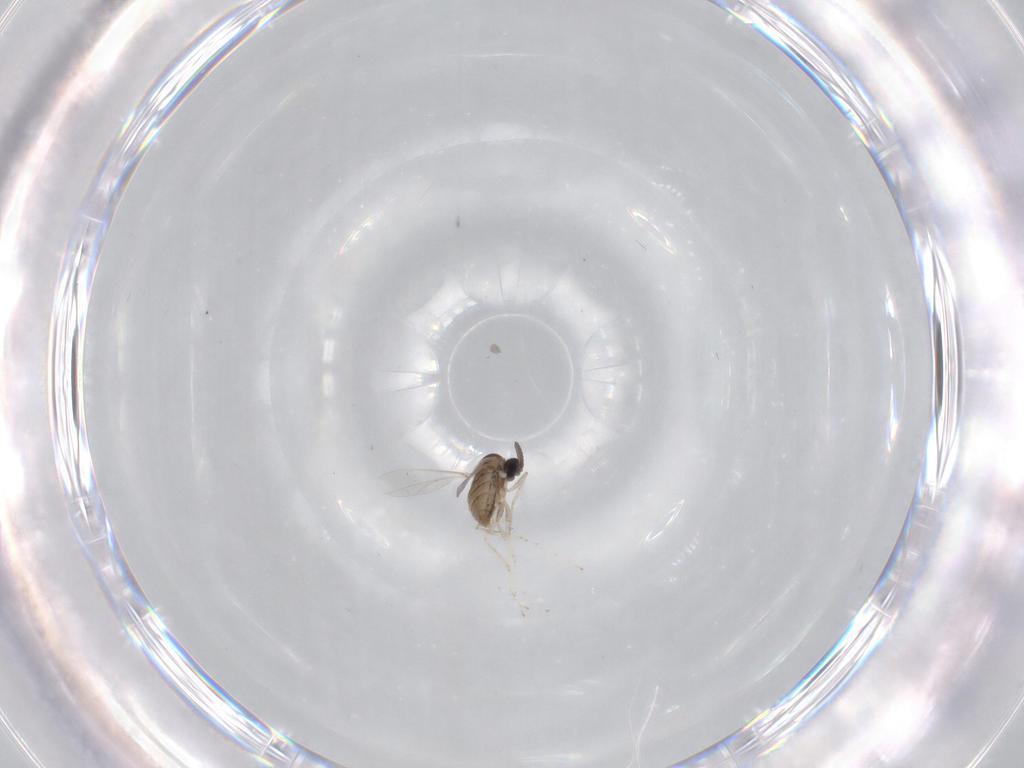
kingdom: Animalia
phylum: Arthropoda
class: Insecta
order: Diptera
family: Cecidomyiidae
